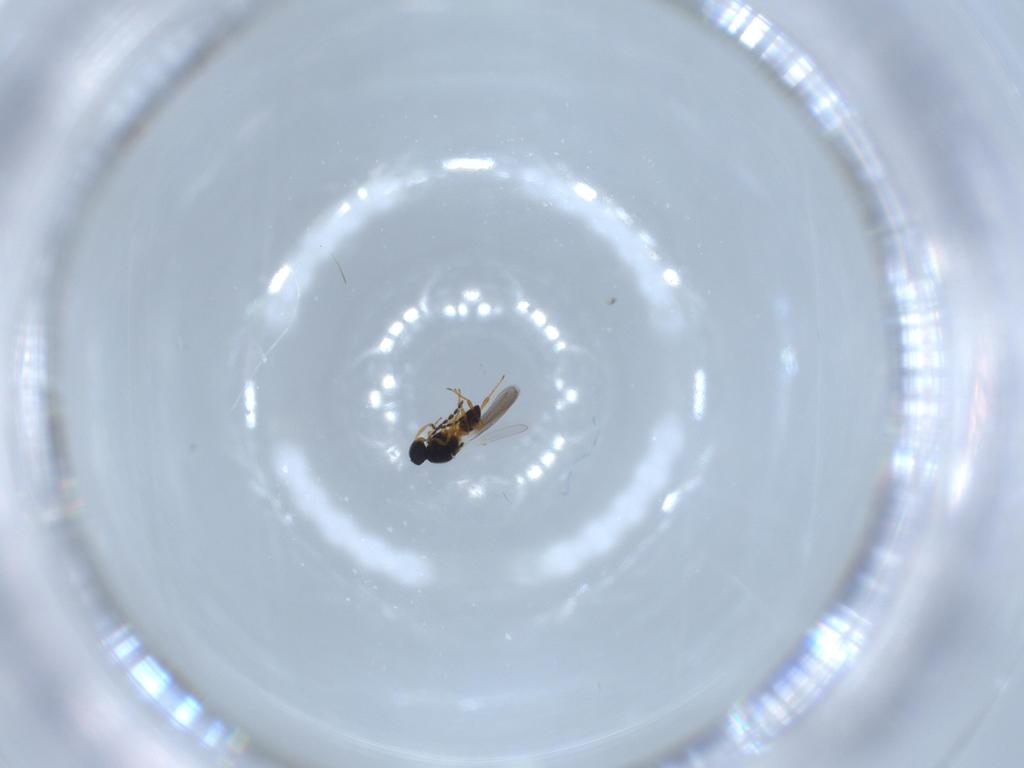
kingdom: Animalia
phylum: Arthropoda
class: Insecta
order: Hymenoptera
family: Platygastridae
